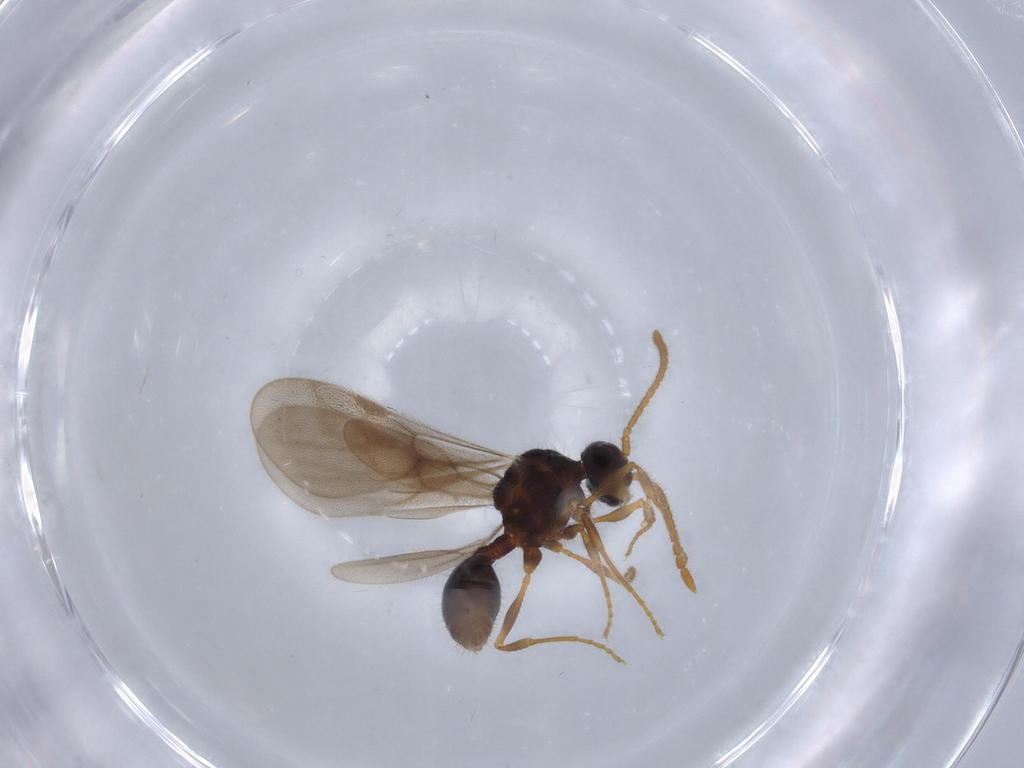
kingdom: Animalia
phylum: Arthropoda
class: Insecta
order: Hymenoptera
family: Formicidae
